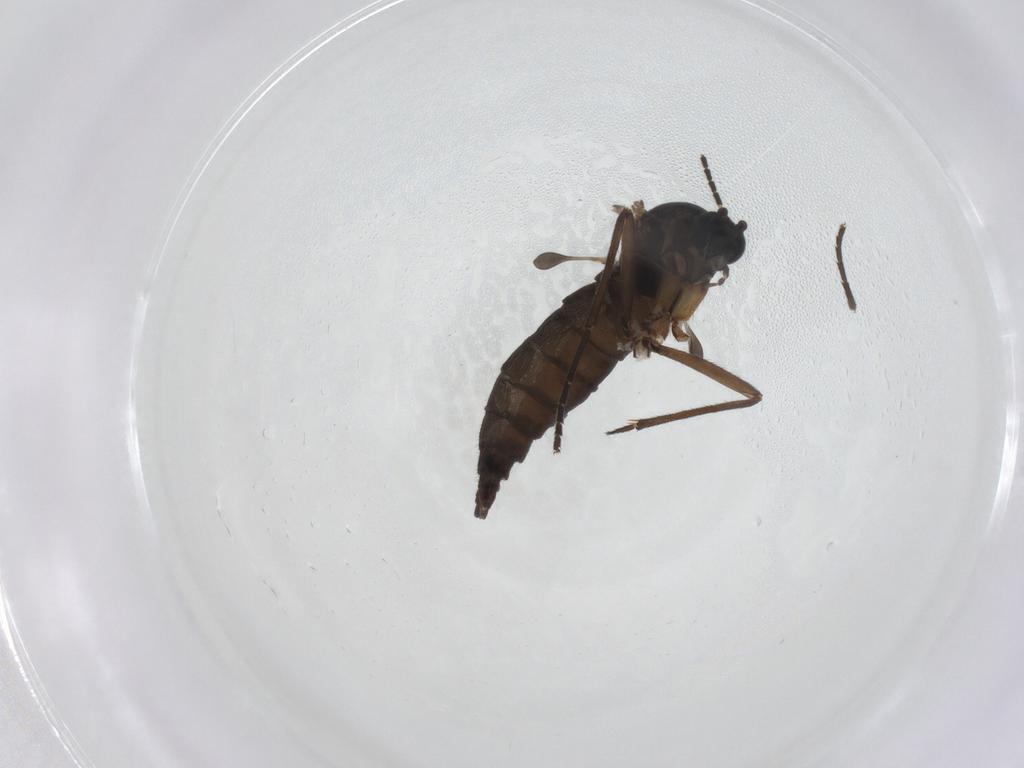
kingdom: Animalia
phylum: Arthropoda
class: Insecta
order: Diptera
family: Sciaridae
